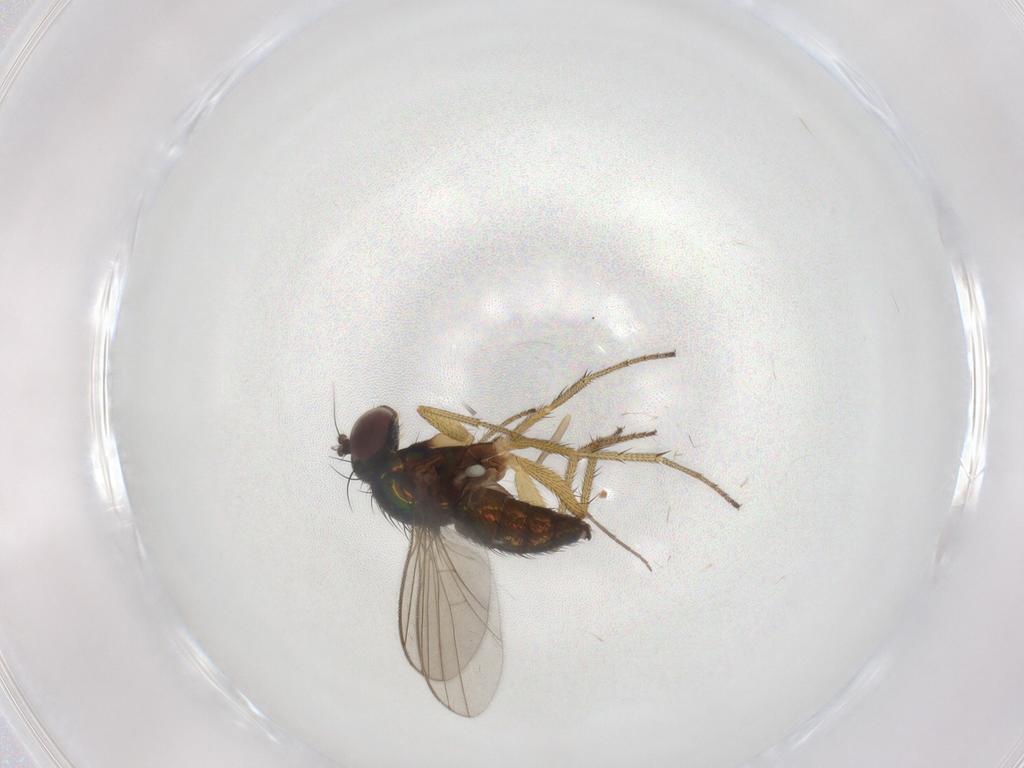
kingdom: Animalia
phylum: Arthropoda
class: Insecta
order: Diptera
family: Chironomidae
